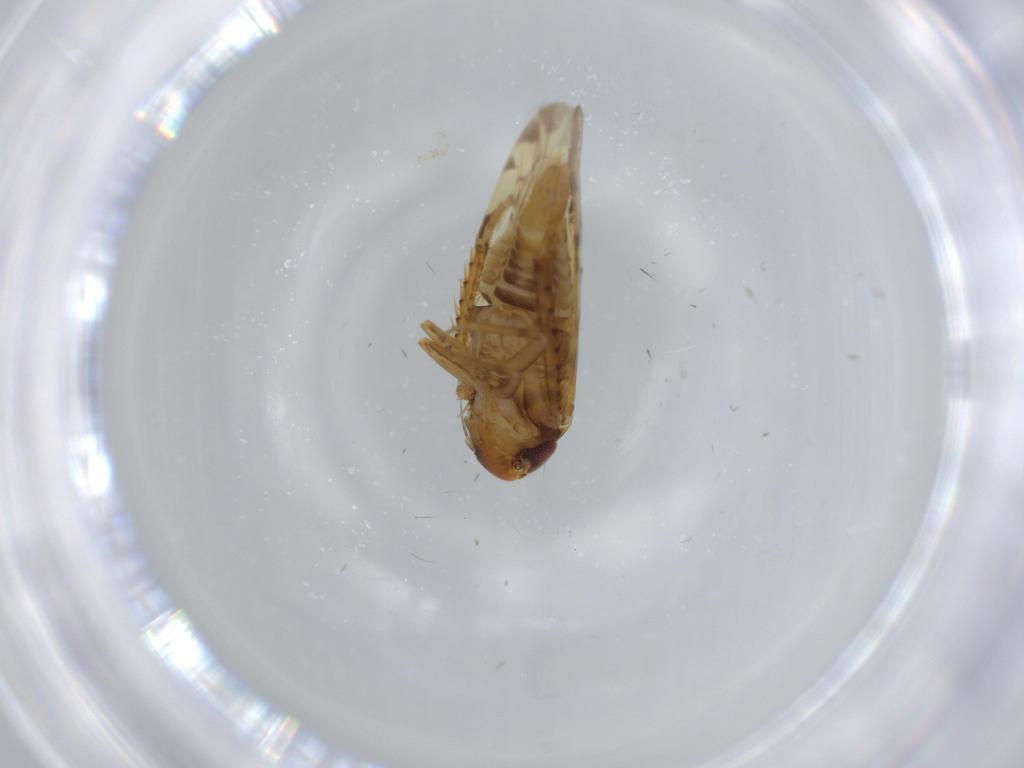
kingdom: Animalia
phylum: Arthropoda
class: Insecta
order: Hemiptera
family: Cicadellidae
